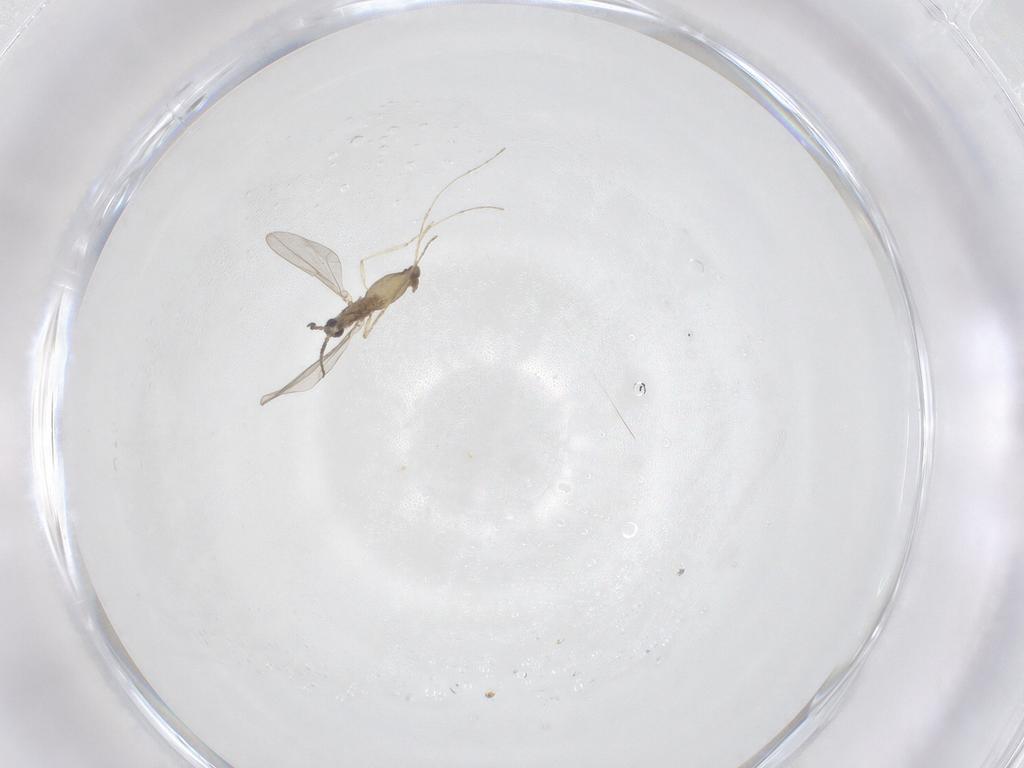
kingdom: Animalia
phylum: Arthropoda
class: Insecta
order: Diptera
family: Cecidomyiidae
